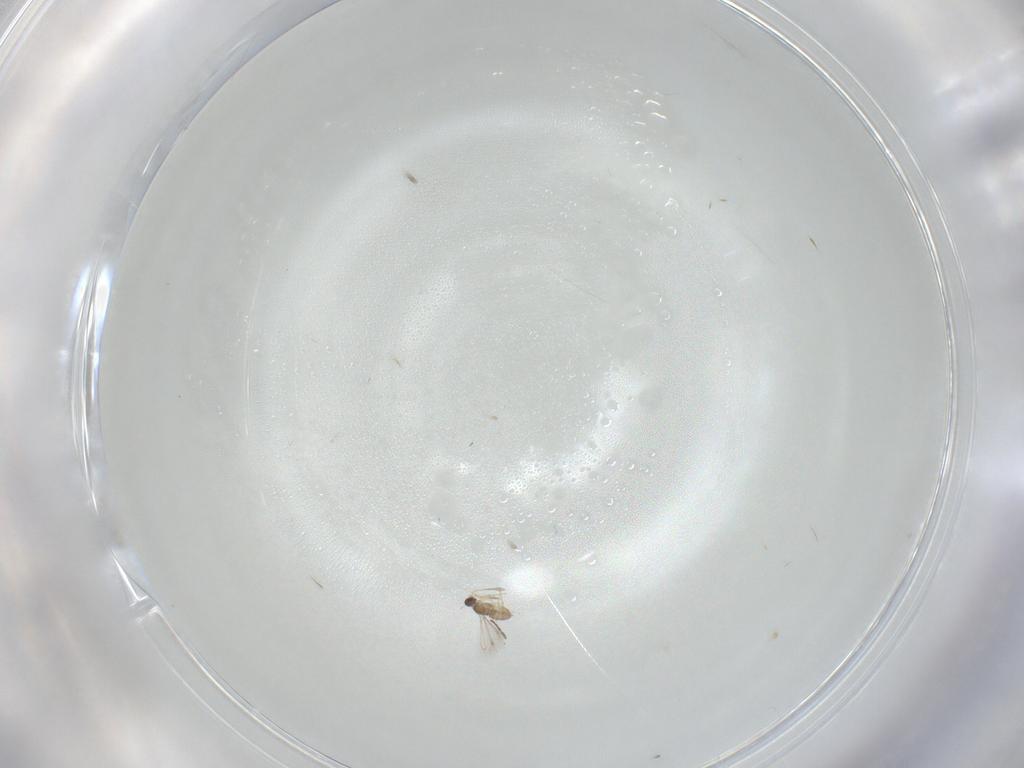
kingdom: Animalia
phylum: Arthropoda
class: Insecta
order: Hymenoptera
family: Mymaridae
